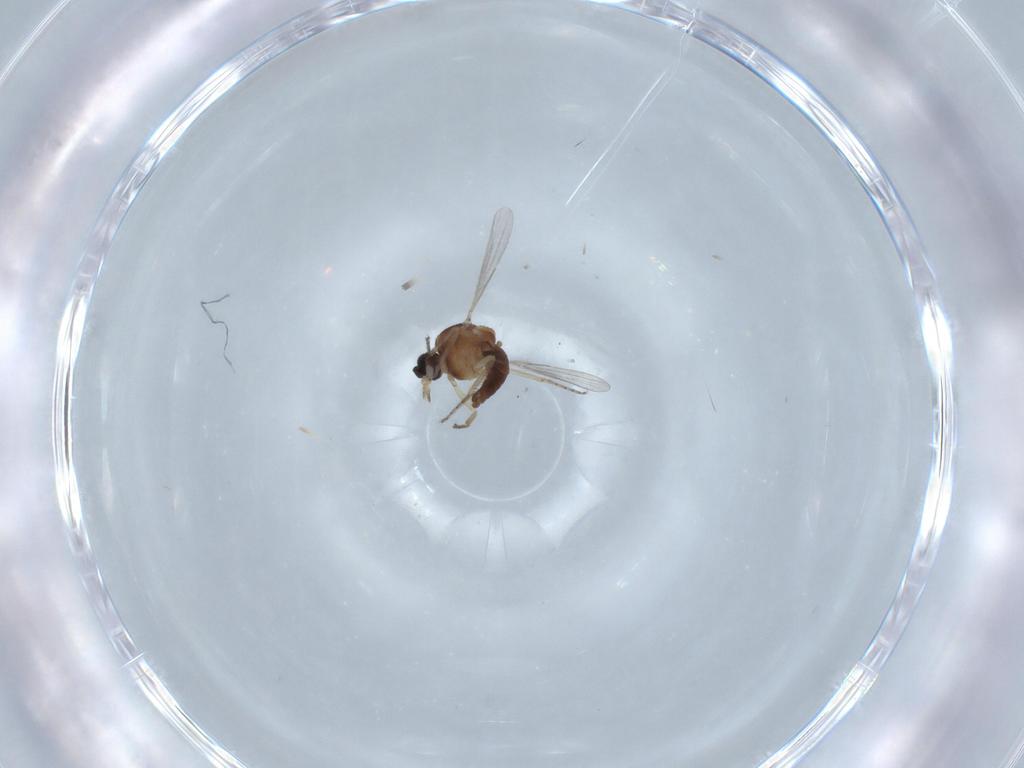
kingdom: Animalia
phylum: Arthropoda
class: Insecta
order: Diptera
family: Ceratopogonidae
